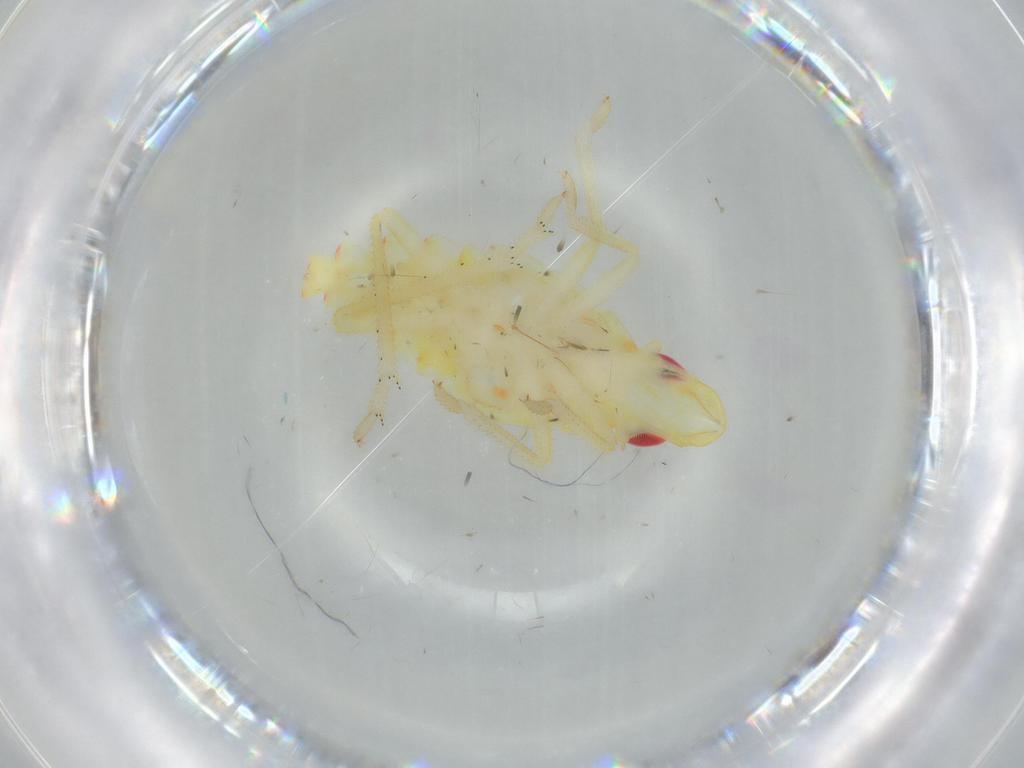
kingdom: Animalia
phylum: Arthropoda
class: Insecta
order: Hemiptera
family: Tropiduchidae
